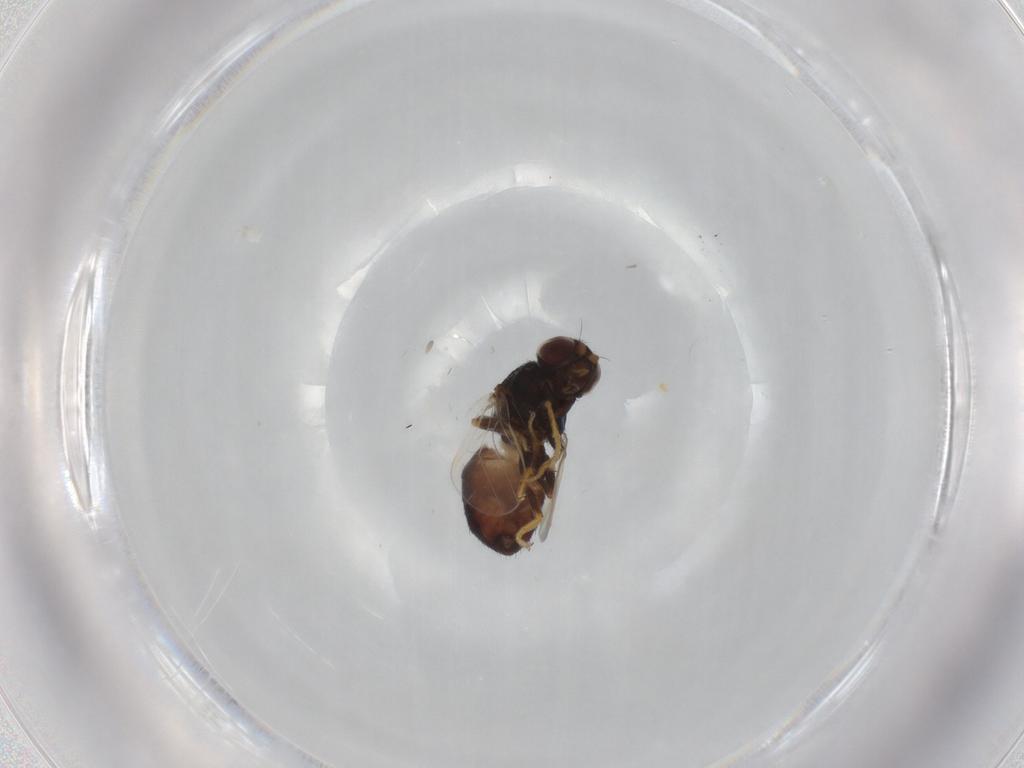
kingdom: Animalia
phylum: Arthropoda
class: Insecta
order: Diptera
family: Chloropidae
